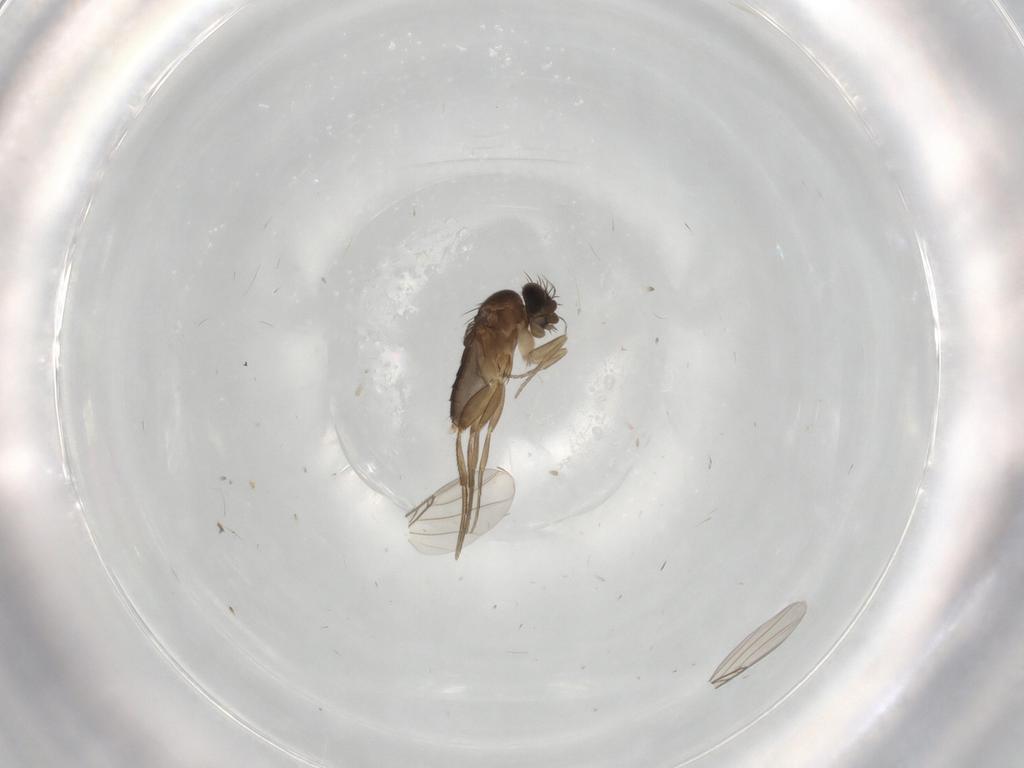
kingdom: Animalia
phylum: Arthropoda
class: Insecta
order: Diptera
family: Phoridae
